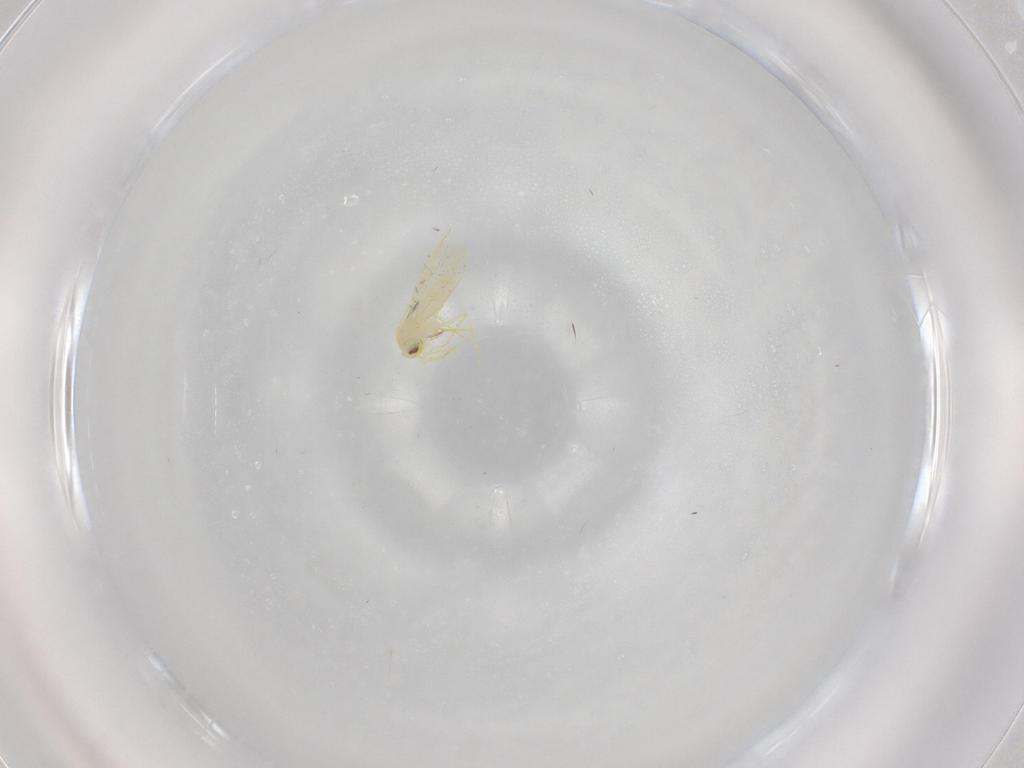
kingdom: Animalia
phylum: Arthropoda
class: Insecta
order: Hemiptera
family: Aleyrodidae
